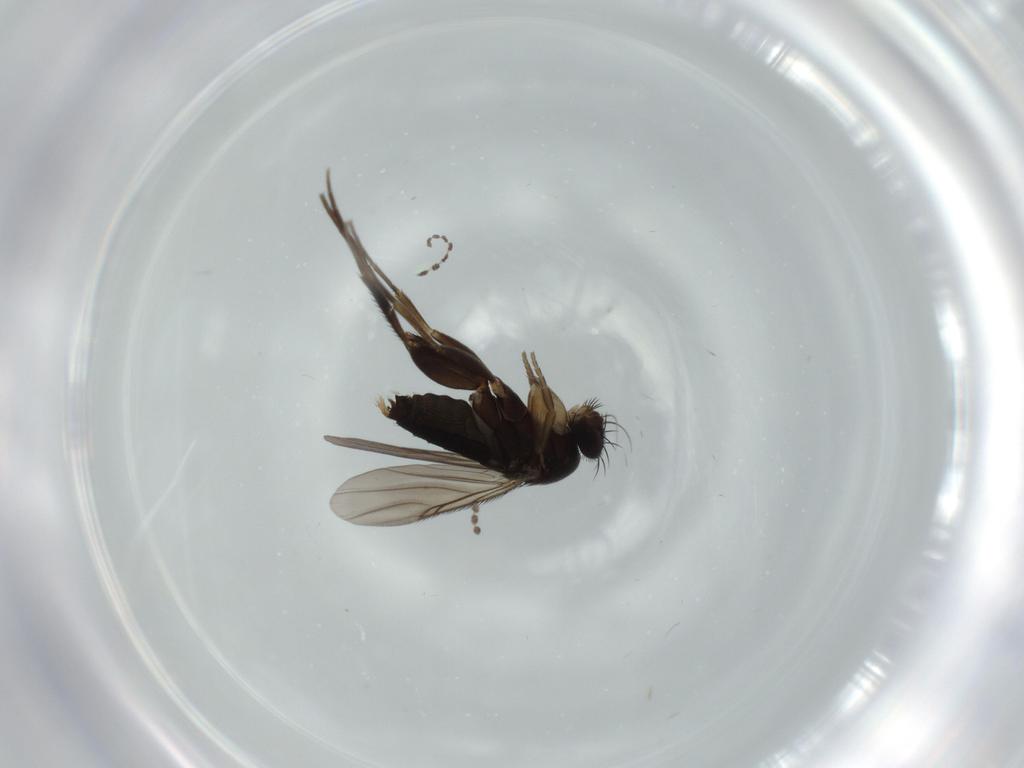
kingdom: Animalia
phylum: Arthropoda
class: Insecta
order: Diptera
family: Cecidomyiidae
